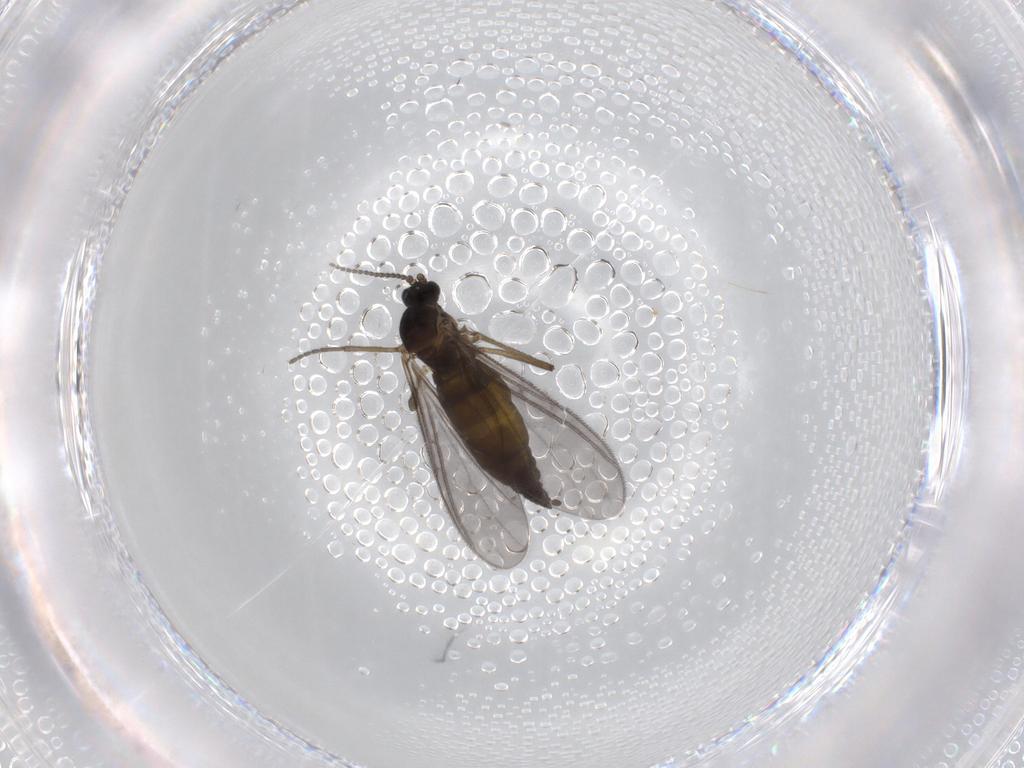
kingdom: Animalia
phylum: Arthropoda
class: Insecta
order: Diptera
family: Sciaridae
